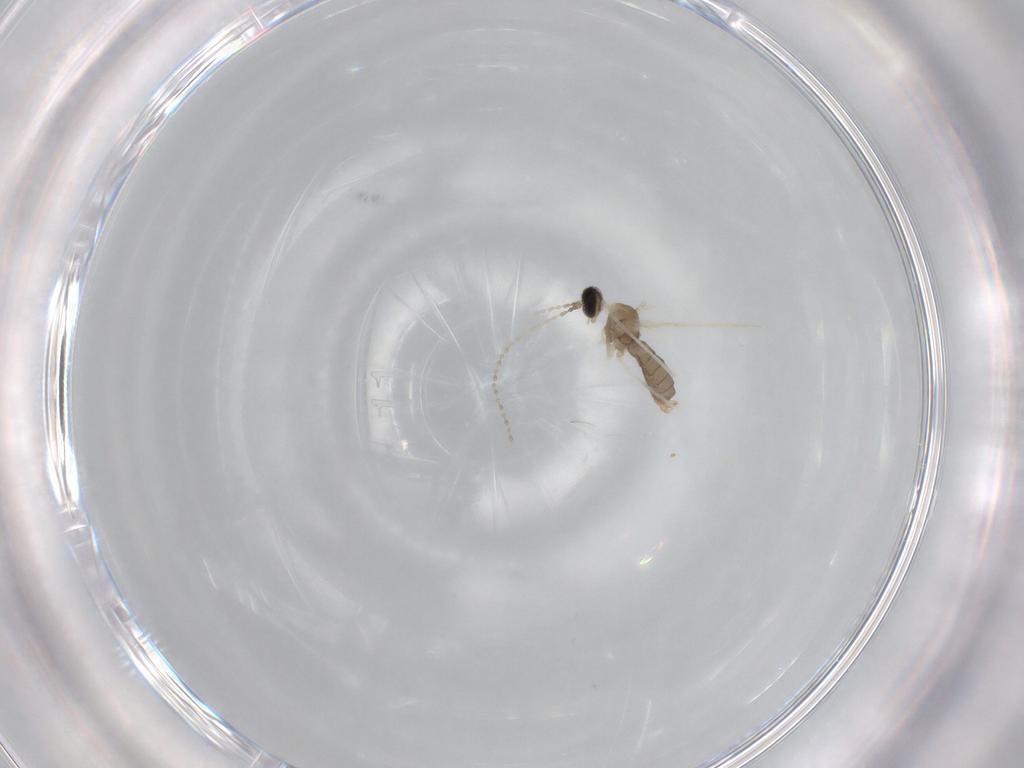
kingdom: Animalia
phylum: Arthropoda
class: Insecta
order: Diptera
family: Cecidomyiidae
